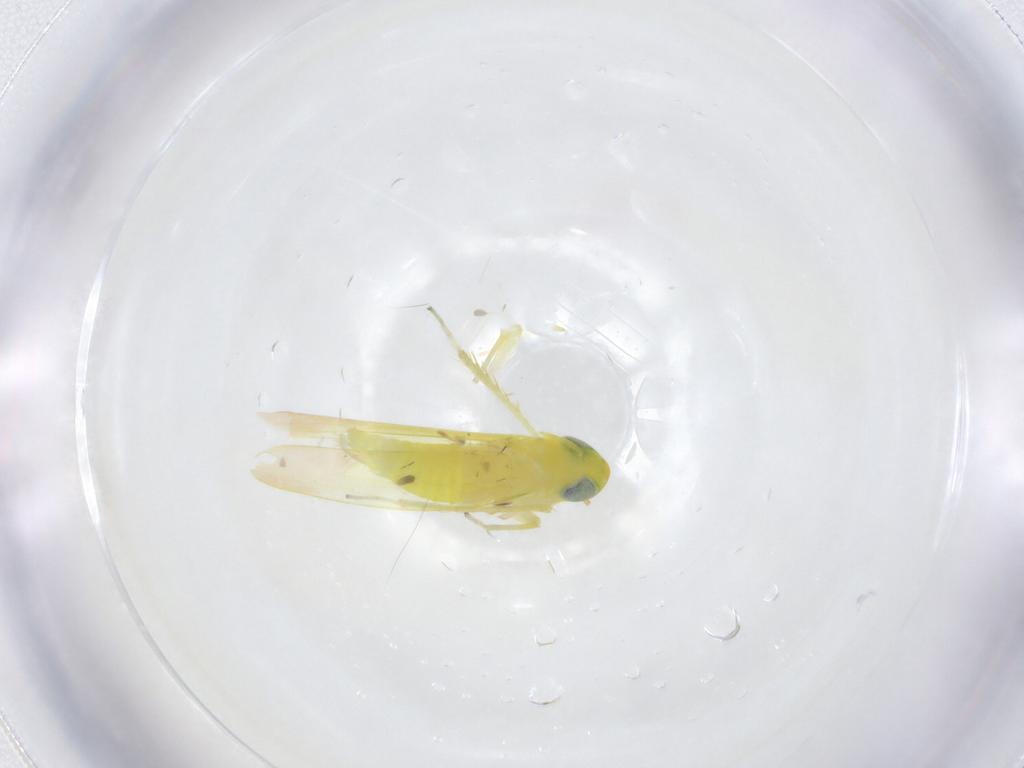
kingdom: Animalia
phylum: Arthropoda
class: Insecta
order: Hemiptera
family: Cicadellidae
